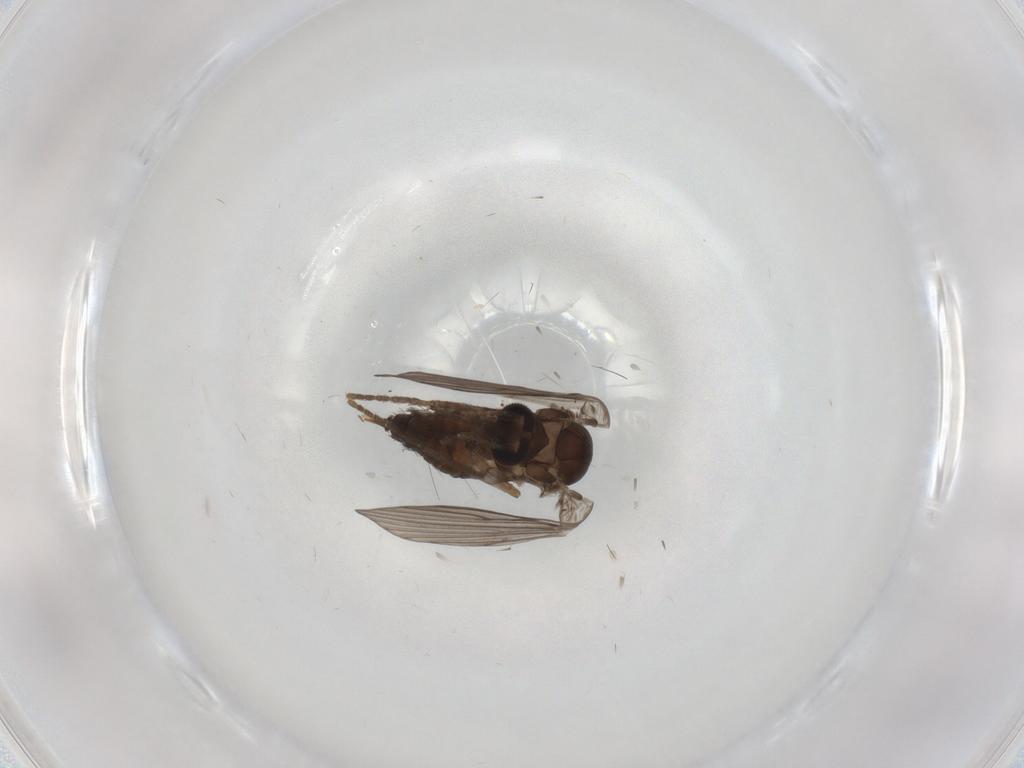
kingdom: Animalia
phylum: Arthropoda
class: Insecta
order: Diptera
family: Psychodidae
